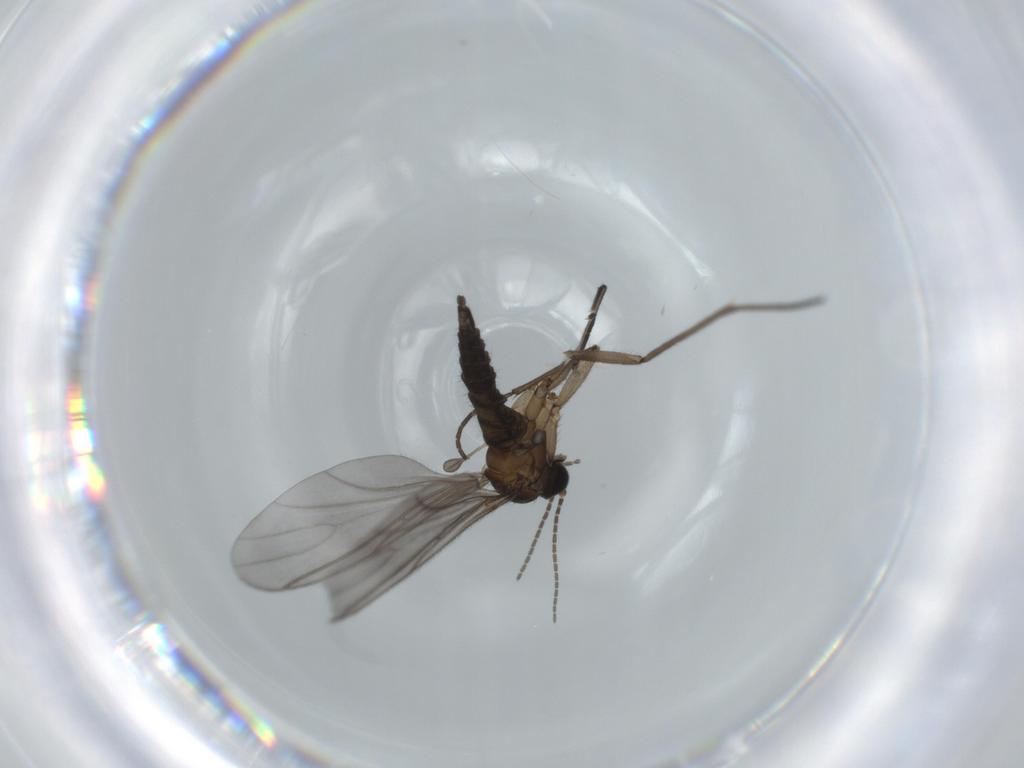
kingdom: Animalia
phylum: Arthropoda
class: Insecta
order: Diptera
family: Sciaridae
